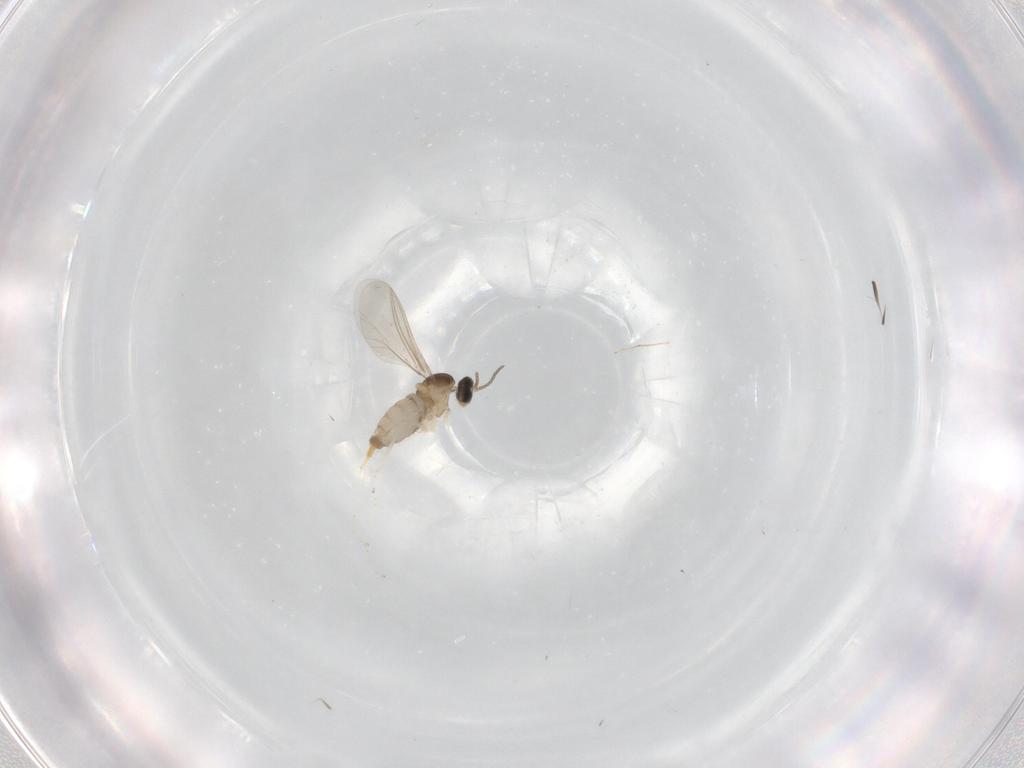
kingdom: Animalia
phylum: Arthropoda
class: Insecta
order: Diptera
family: Cecidomyiidae
